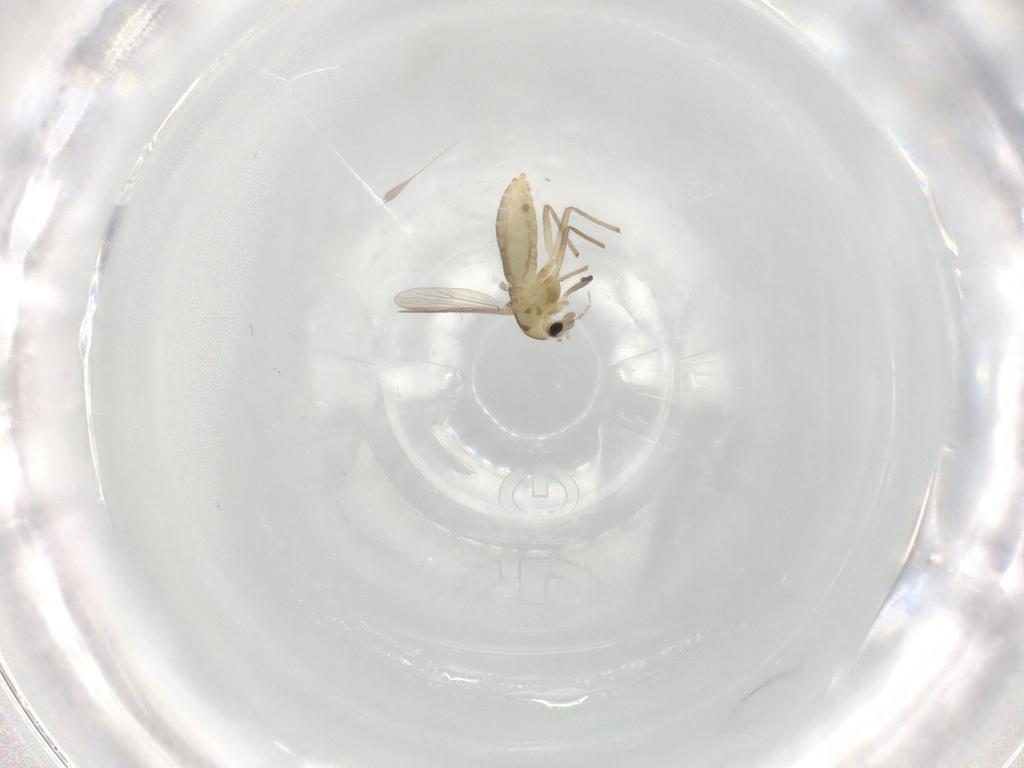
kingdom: Animalia
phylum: Arthropoda
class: Insecta
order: Diptera
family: Chironomidae
